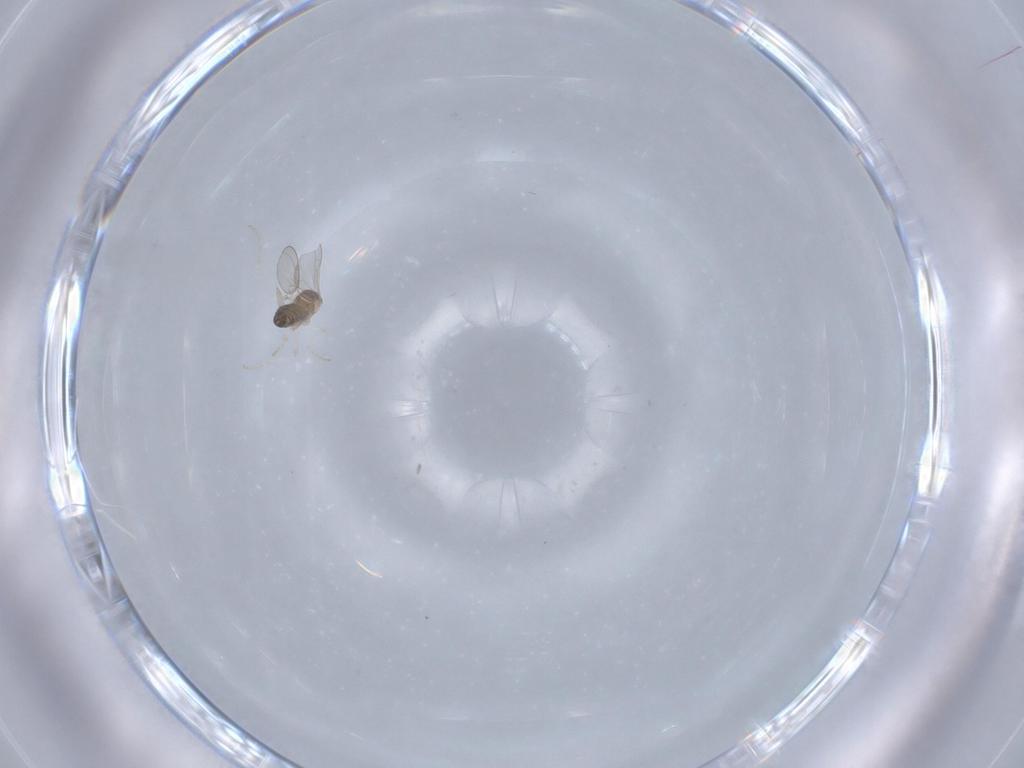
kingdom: Animalia
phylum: Arthropoda
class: Insecta
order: Diptera
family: Cecidomyiidae
